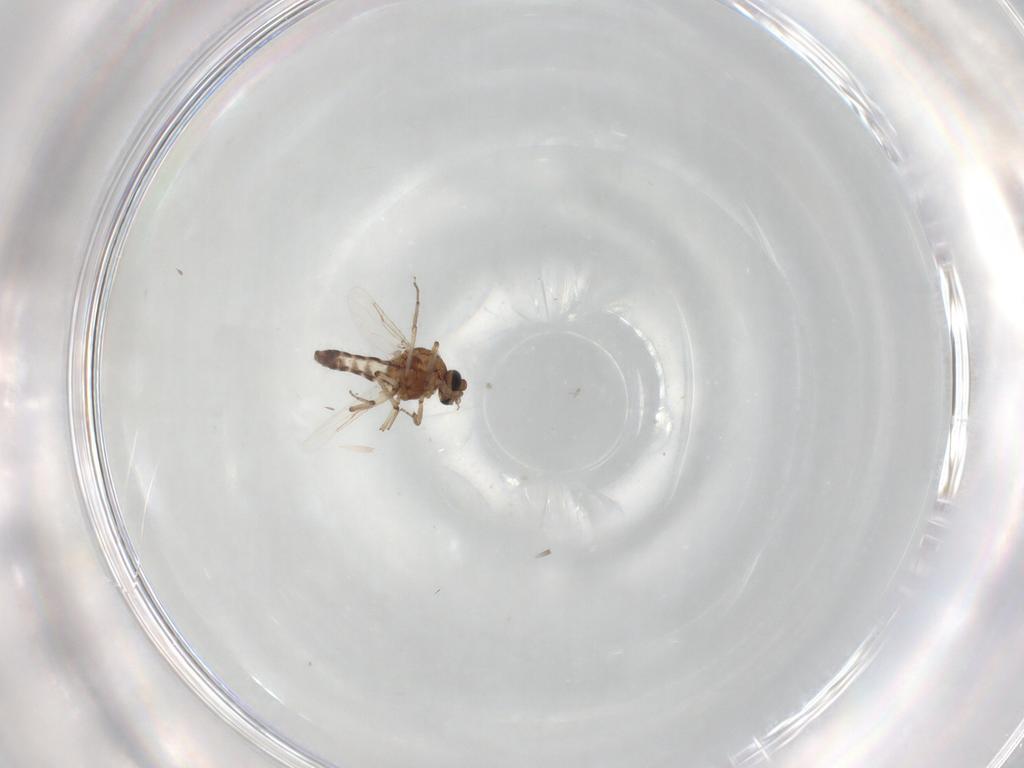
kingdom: Animalia
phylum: Arthropoda
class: Insecta
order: Diptera
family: Ceratopogonidae
